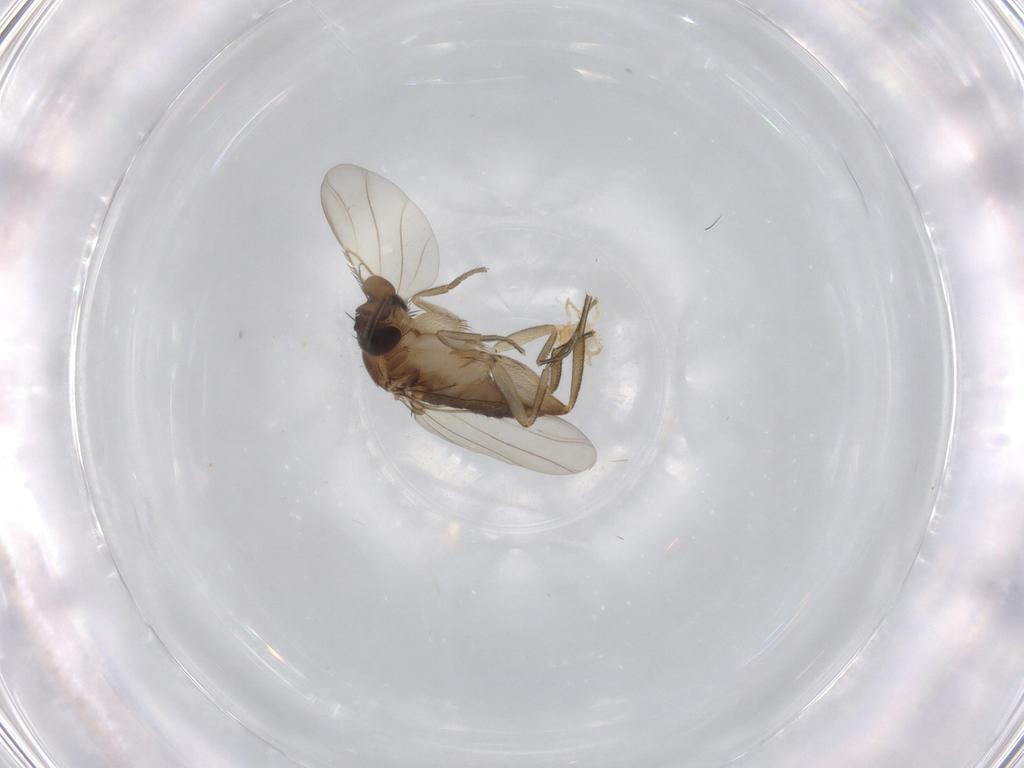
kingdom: Animalia
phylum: Arthropoda
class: Insecta
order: Diptera
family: Phoridae
